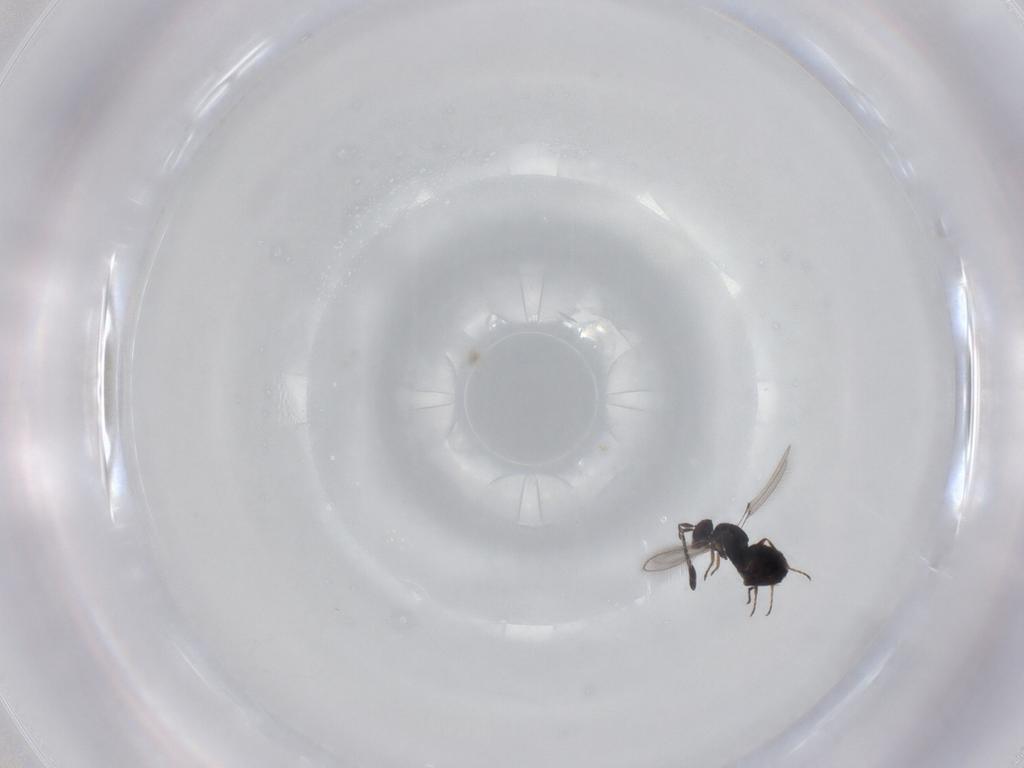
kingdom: Animalia
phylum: Arthropoda
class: Insecta
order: Hymenoptera
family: Mymaridae
